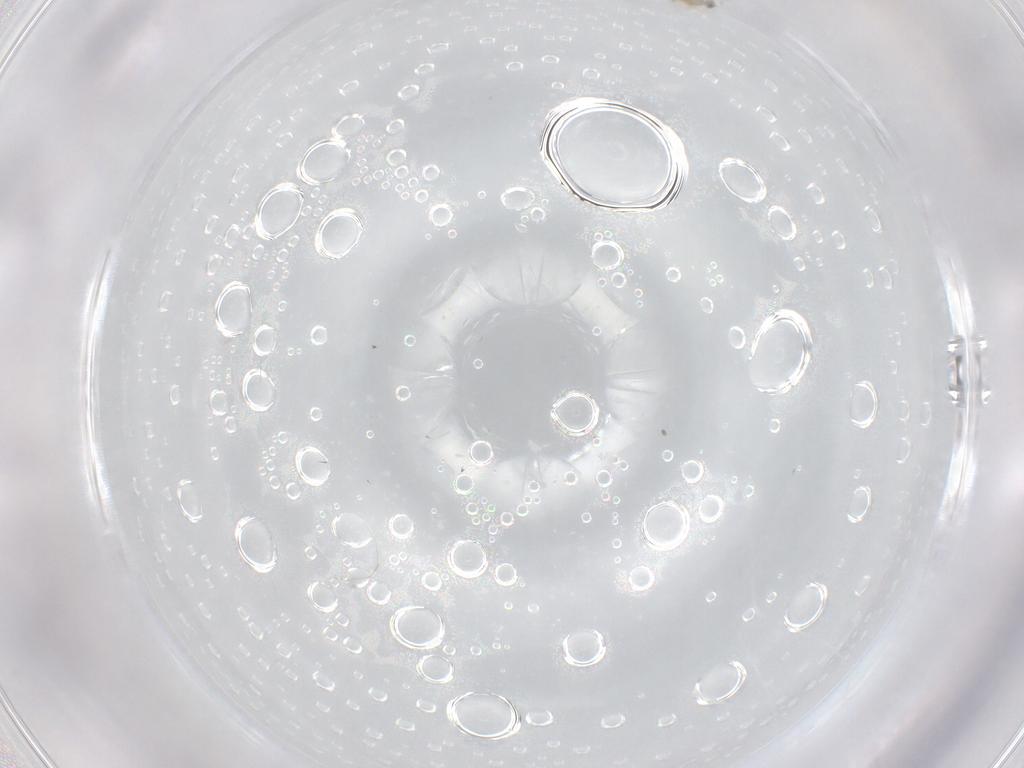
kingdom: Animalia
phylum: Arthropoda
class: Insecta
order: Hymenoptera
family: Trichogrammatidae
